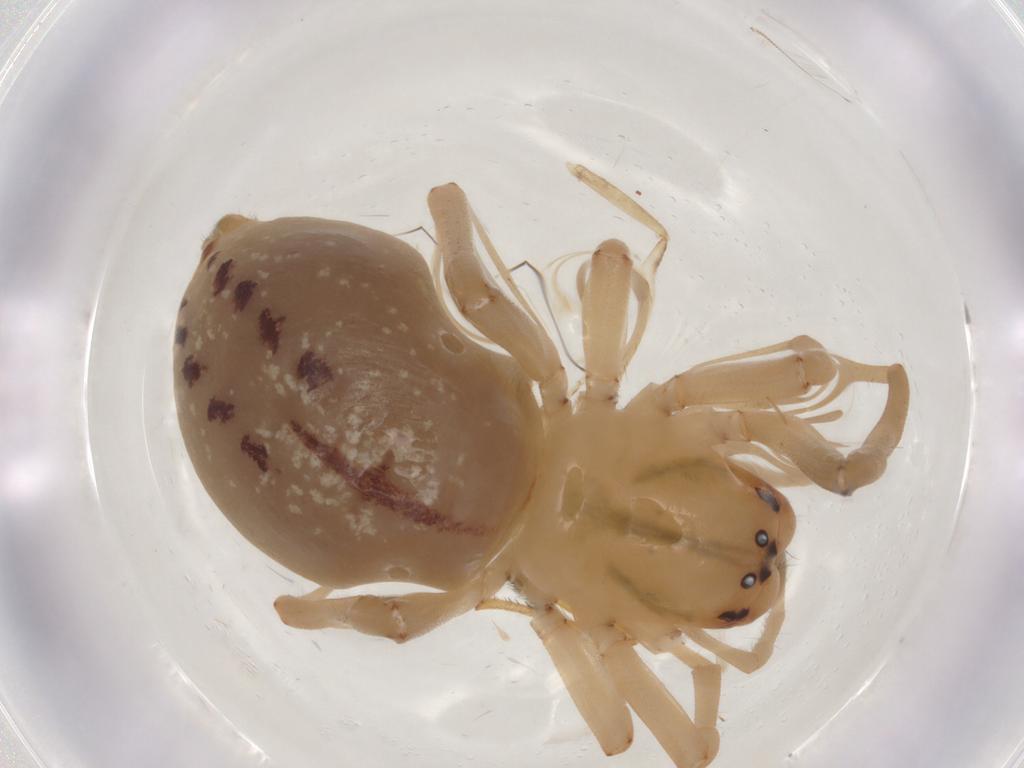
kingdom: Animalia
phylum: Arthropoda
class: Arachnida
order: Araneae
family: Cheiracanthiidae
